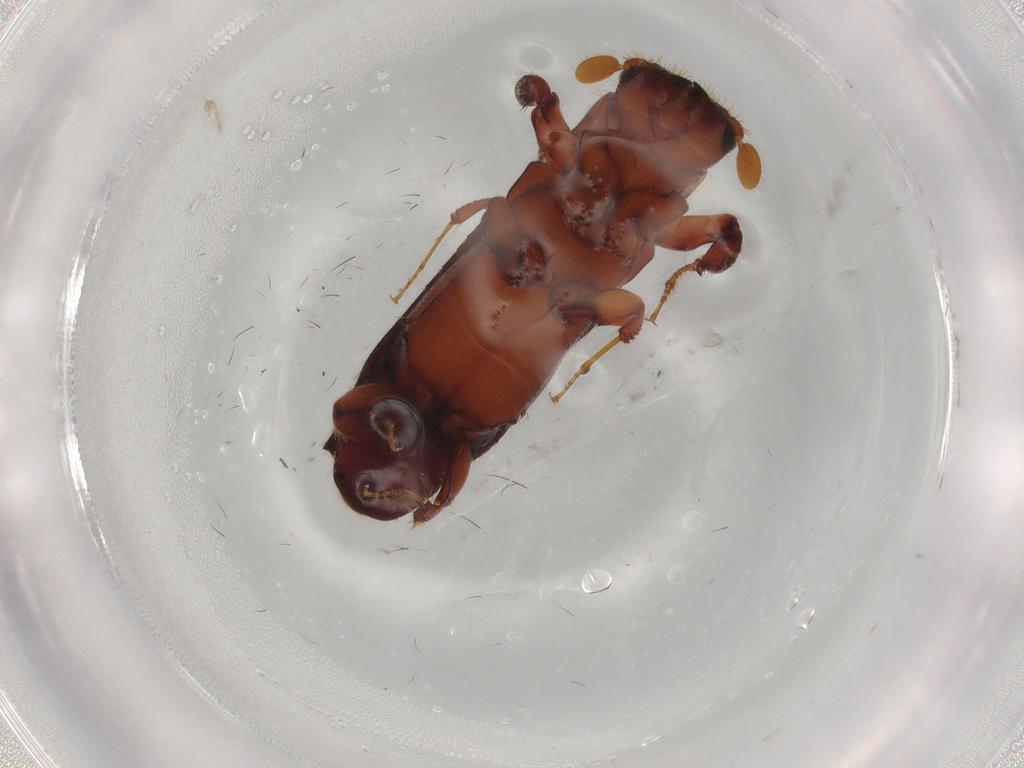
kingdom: Animalia
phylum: Arthropoda
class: Insecta
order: Coleoptera
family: Curculionidae
